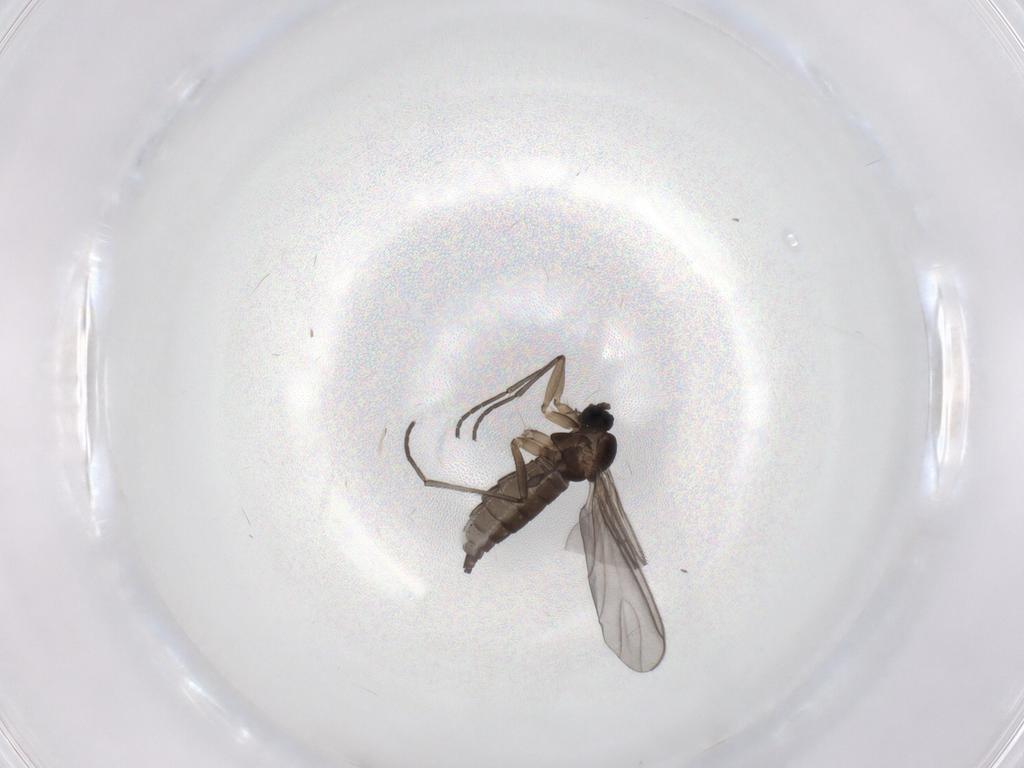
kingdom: Animalia
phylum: Arthropoda
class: Insecta
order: Diptera
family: Sciaridae
